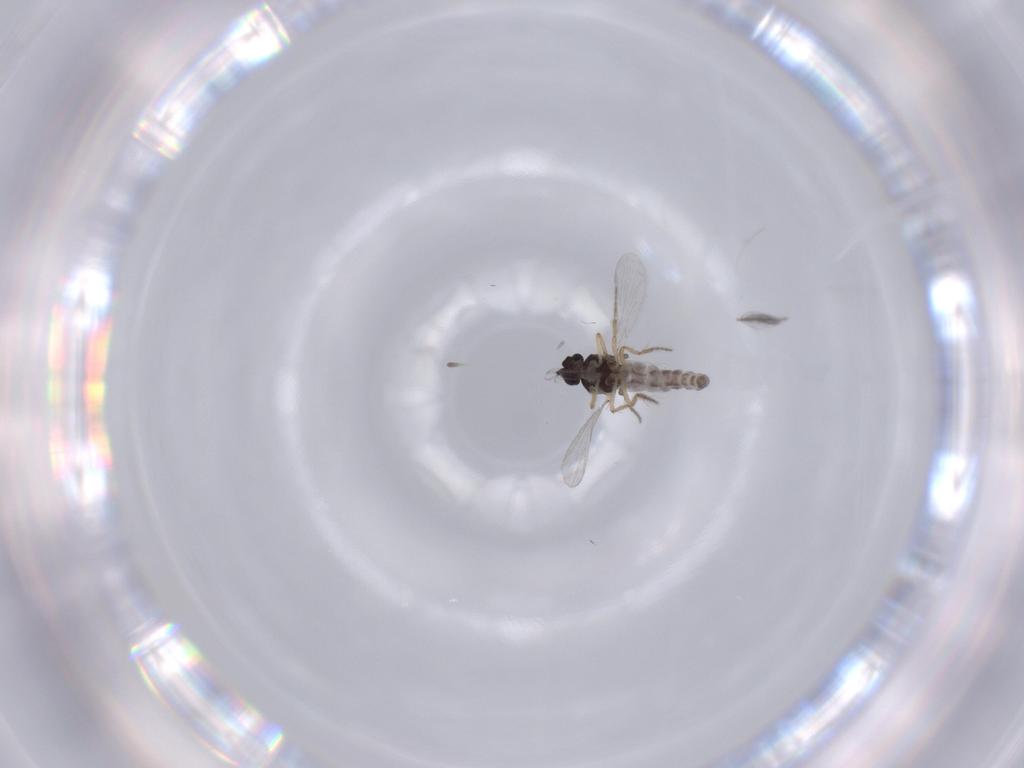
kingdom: Animalia
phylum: Arthropoda
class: Insecta
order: Diptera
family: Ceratopogonidae
